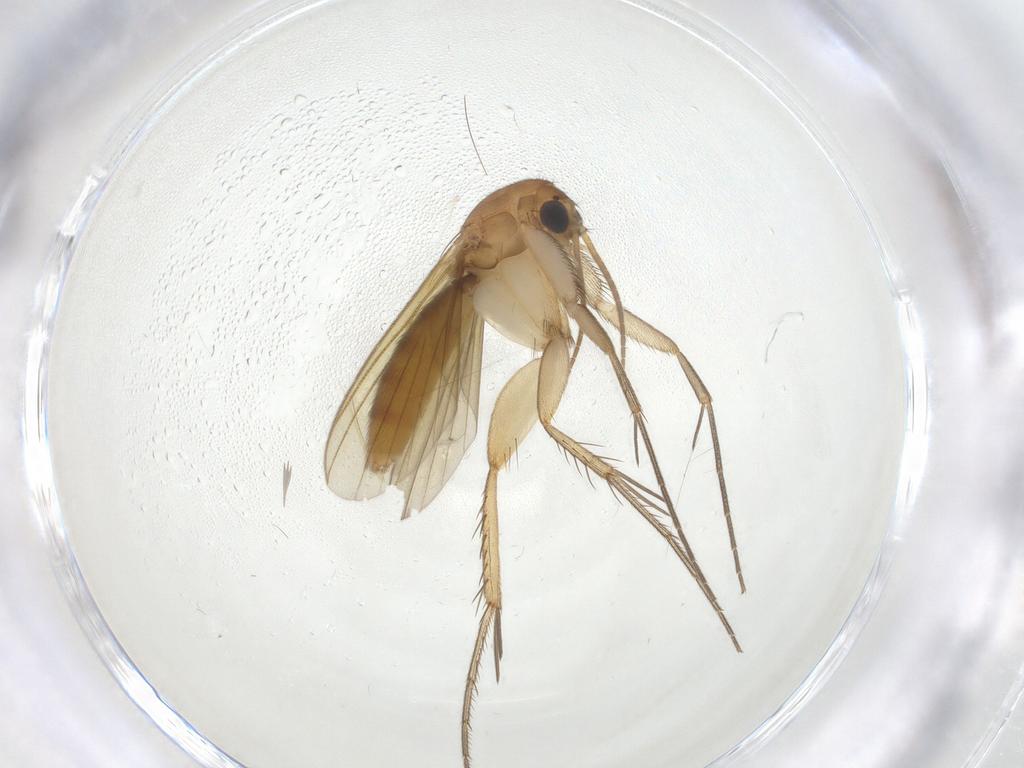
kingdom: Animalia
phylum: Arthropoda
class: Insecta
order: Diptera
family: Mycetophilidae
